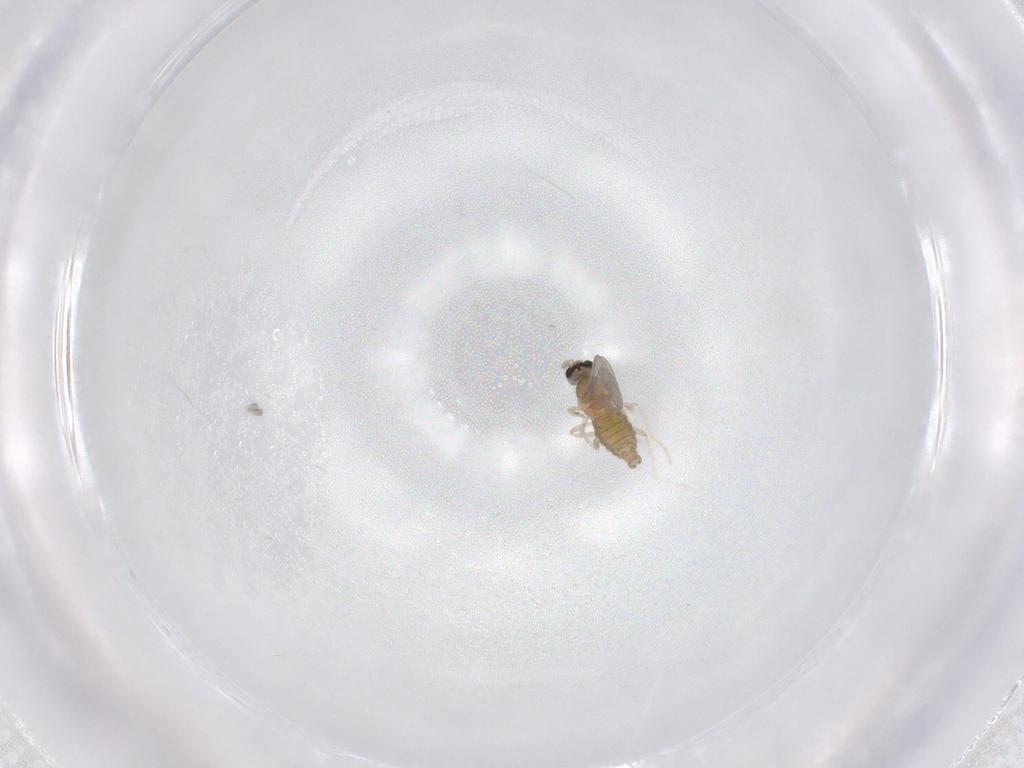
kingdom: Animalia
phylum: Arthropoda
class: Insecta
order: Diptera
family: Cecidomyiidae
